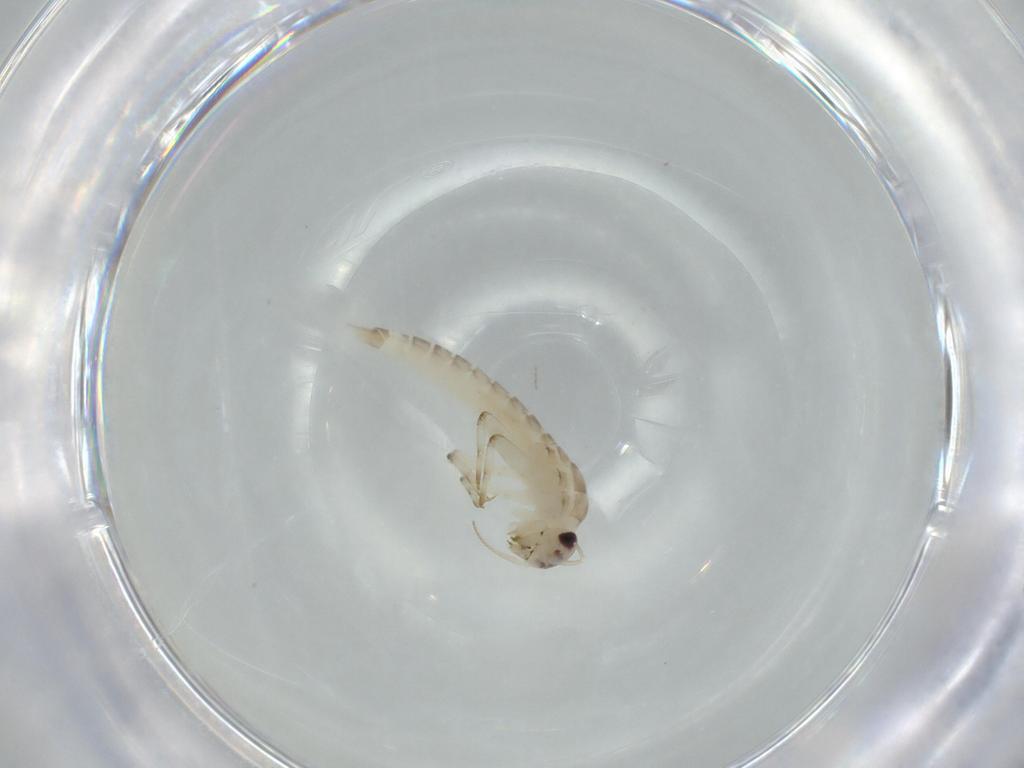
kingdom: Animalia
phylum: Arthropoda
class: Insecta
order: Ephemeroptera
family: Baetidae
